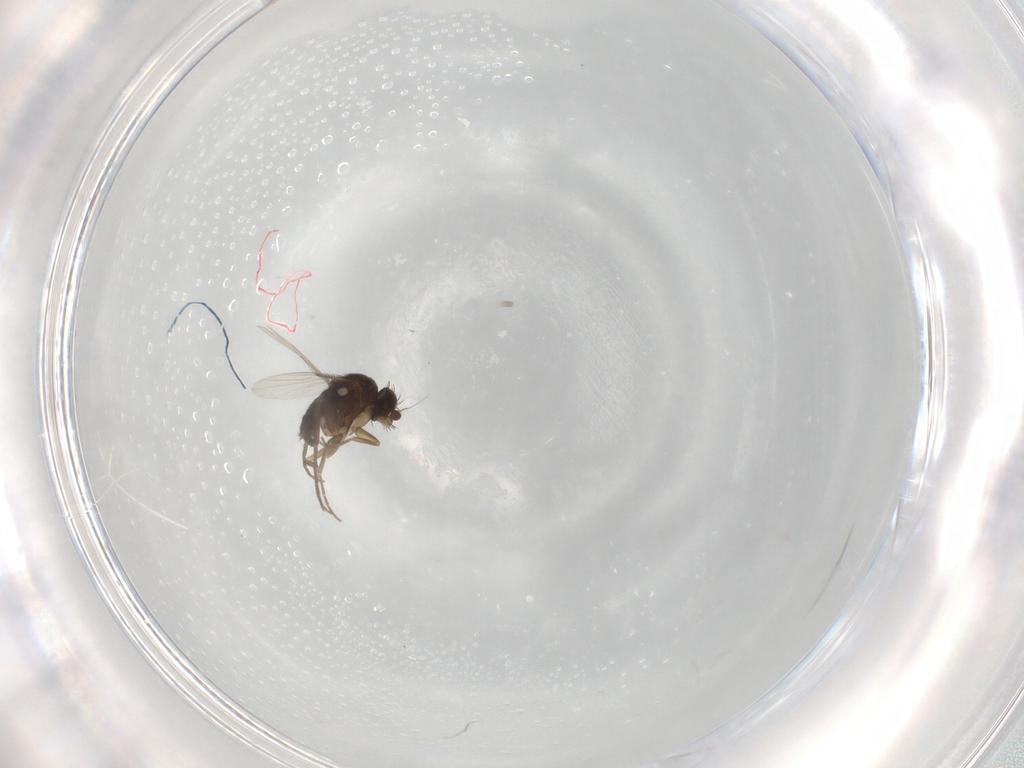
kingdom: Animalia
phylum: Arthropoda
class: Insecta
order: Diptera
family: Phoridae
